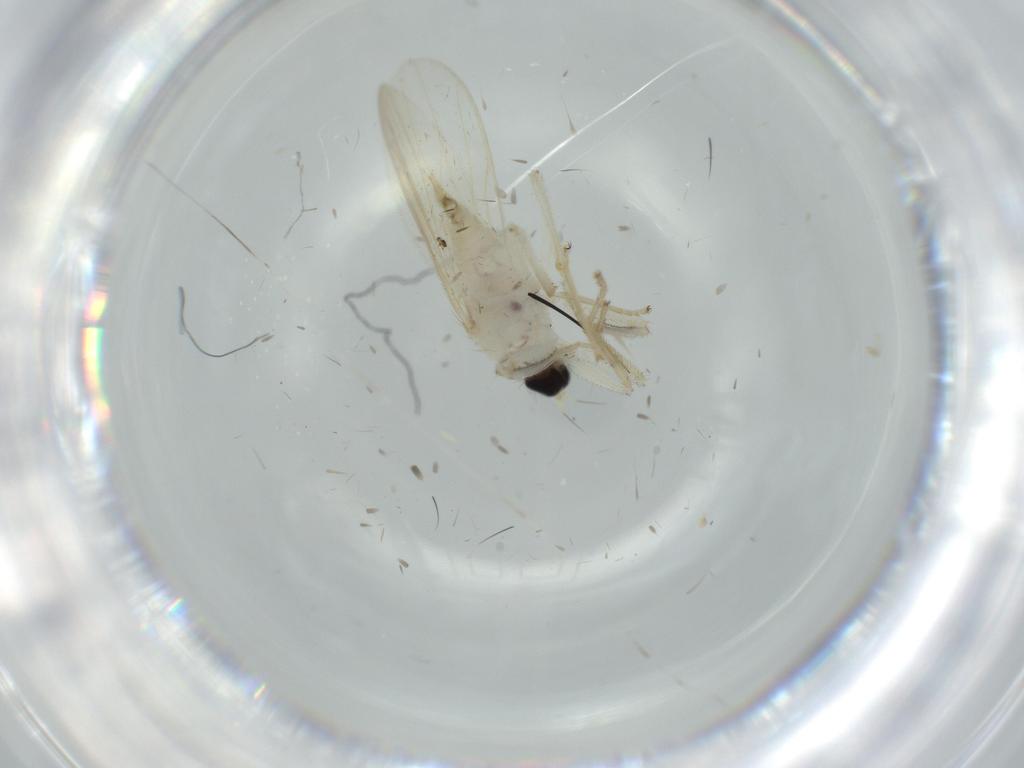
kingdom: Animalia
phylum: Arthropoda
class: Insecta
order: Diptera
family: Hybotidae
